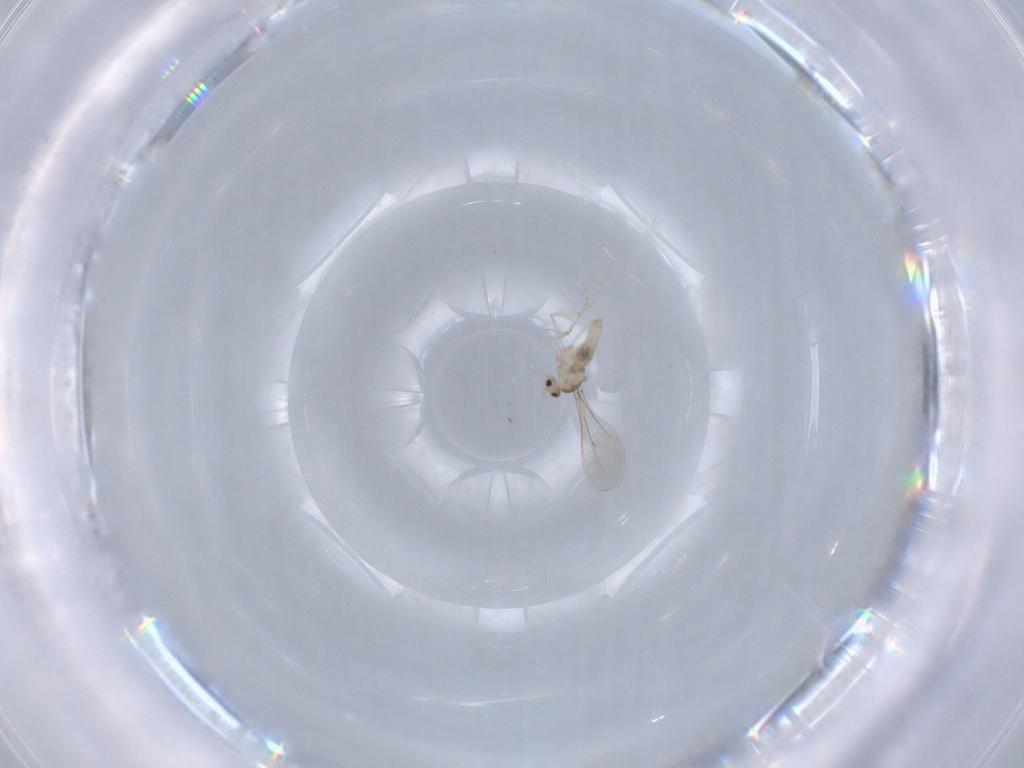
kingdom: Animalia
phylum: Arthropoda
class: Insecta
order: Diptera
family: Cecidomyiidae
